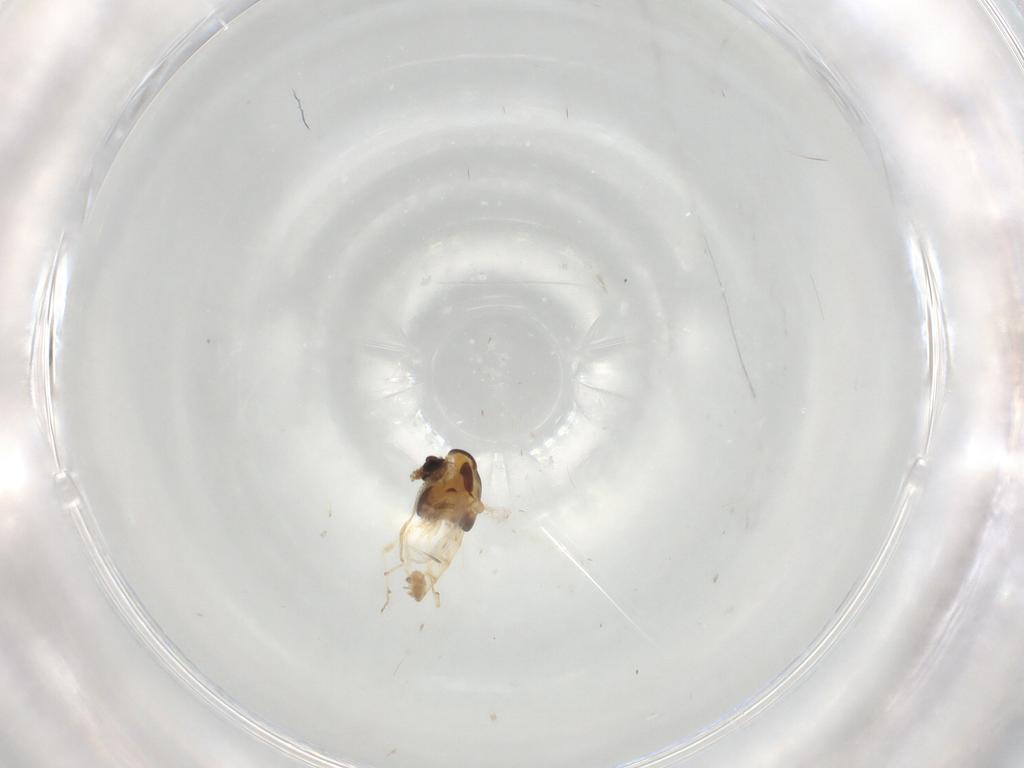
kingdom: Animalia
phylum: Arthropoda
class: Insecta
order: Diptera
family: Chironomidae
